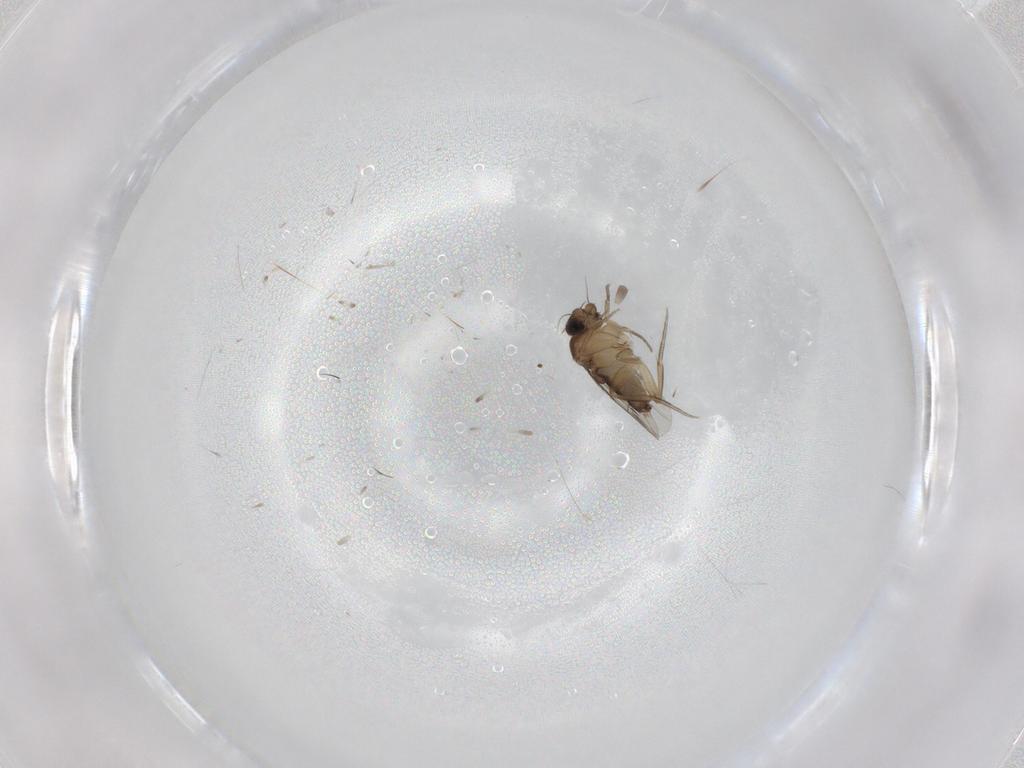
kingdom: Animalia
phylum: Arthropoda
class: Insecta
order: Diptera
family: Phoridae
